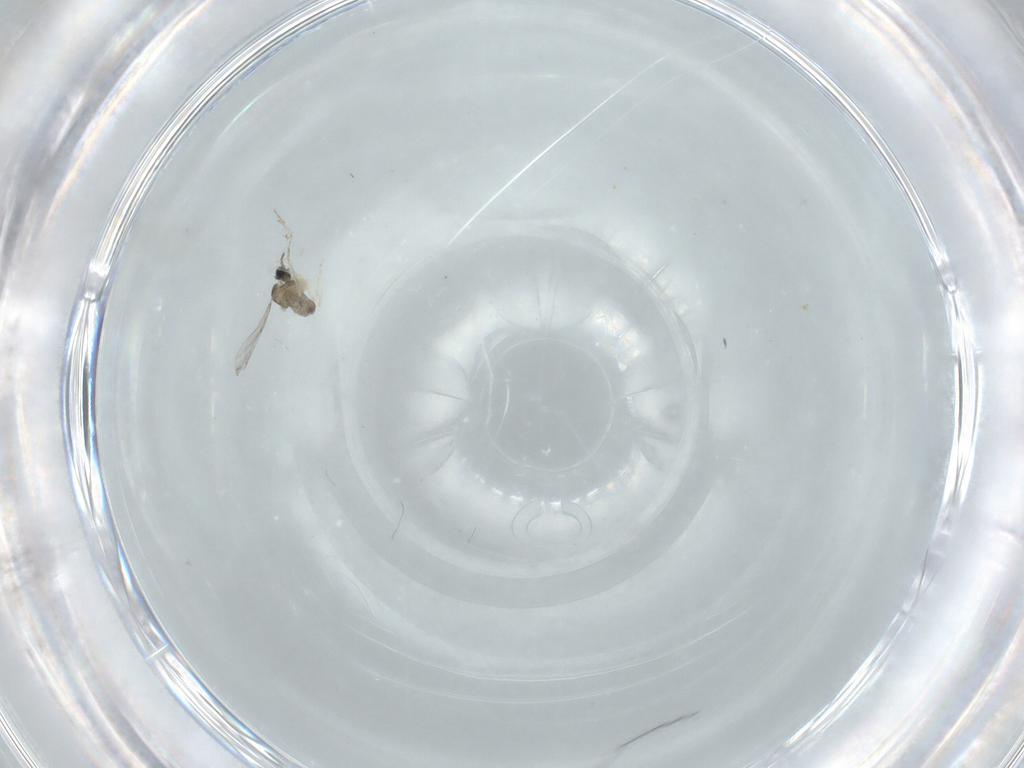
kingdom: Animalia
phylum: Arthropoda
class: Insecta
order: Diptera
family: Cecidomyiidae
